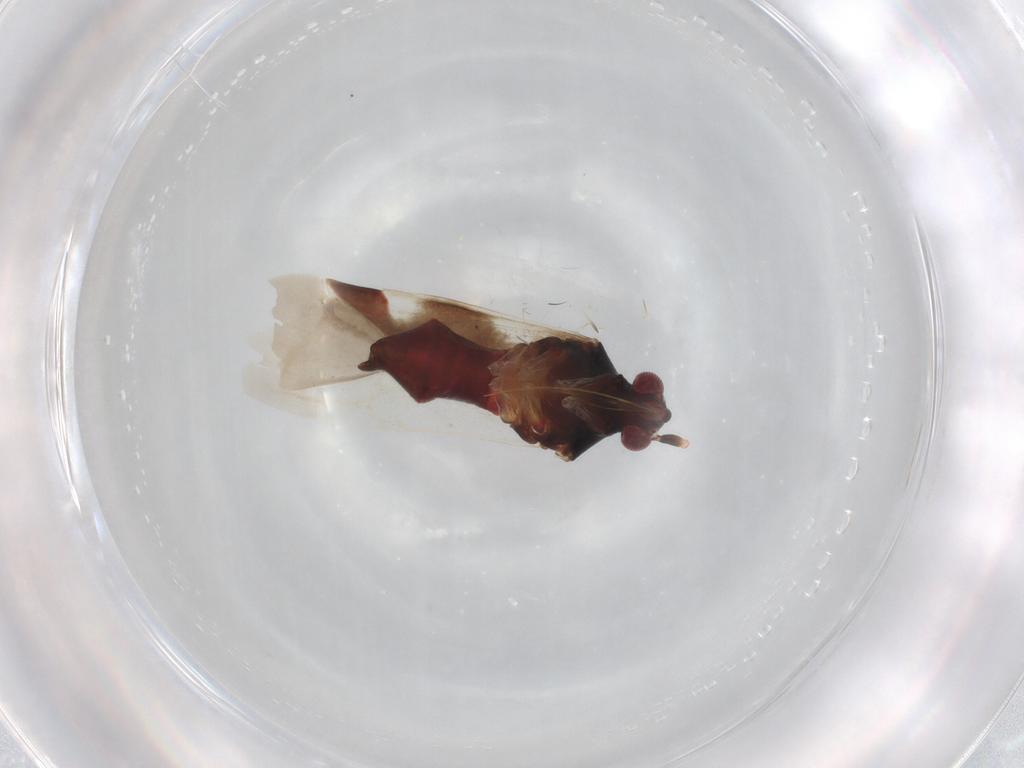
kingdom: Animalia
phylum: Arthropoda
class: Insecta
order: Hemiptera
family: Miridae
